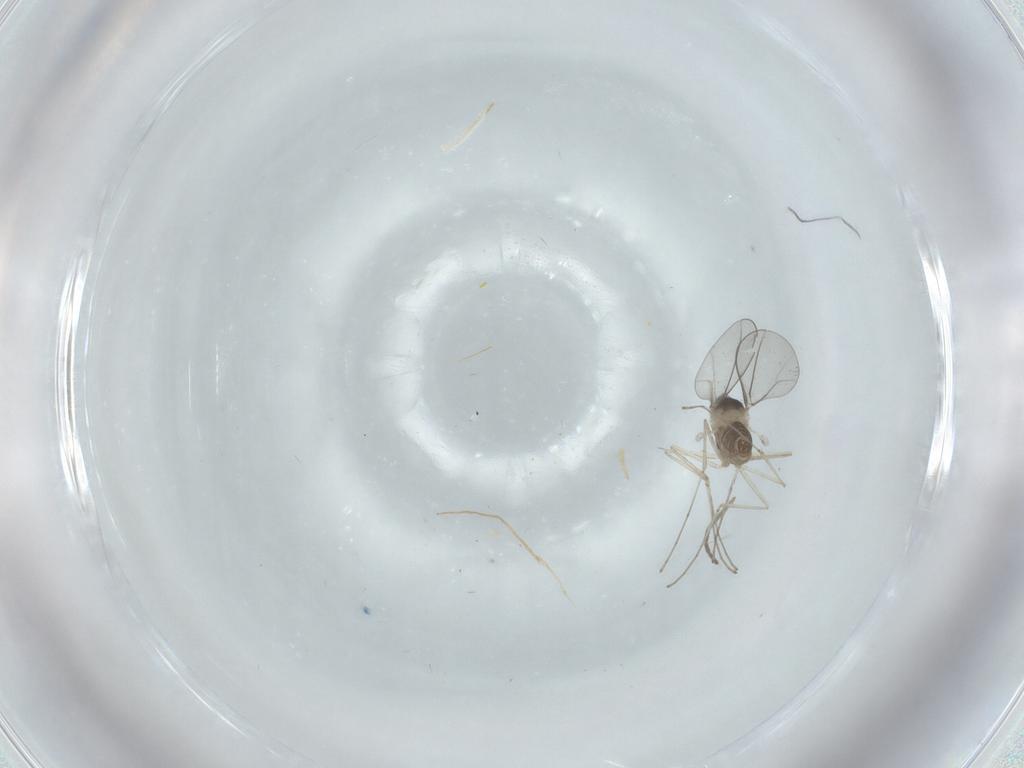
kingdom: Animalia
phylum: Arthropoda
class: Insecta
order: Diptera
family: Cecidomyiidae
